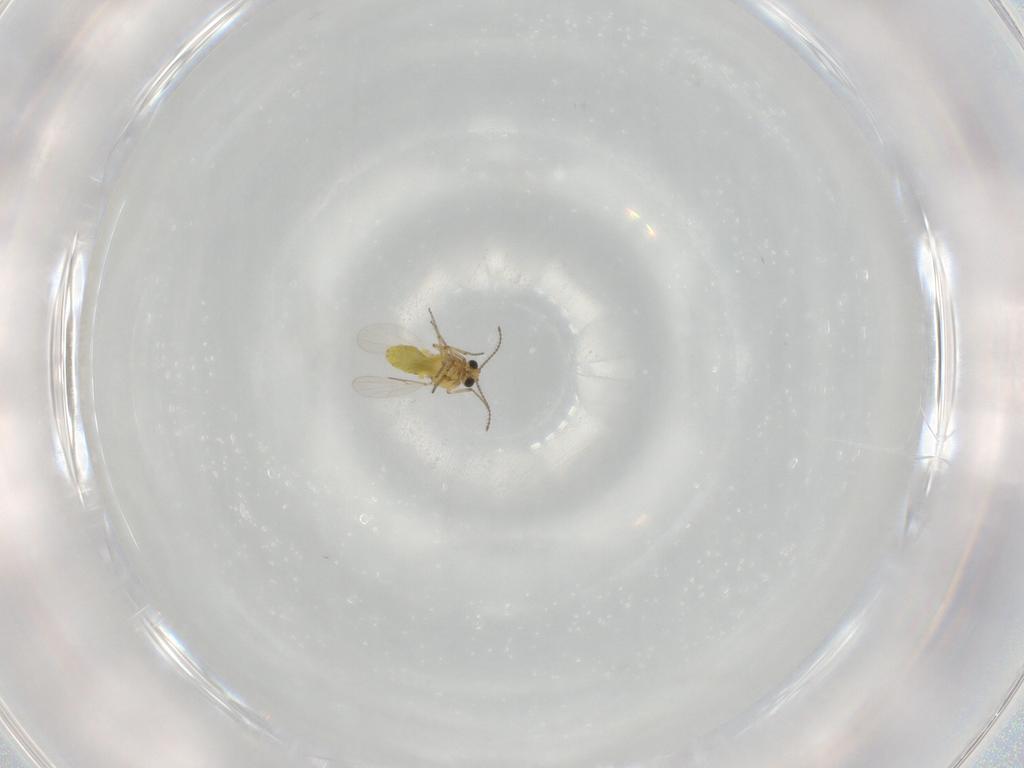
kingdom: Animalia
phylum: Arthropoda
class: Insecta
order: Diptera
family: Ceratopogonidae
